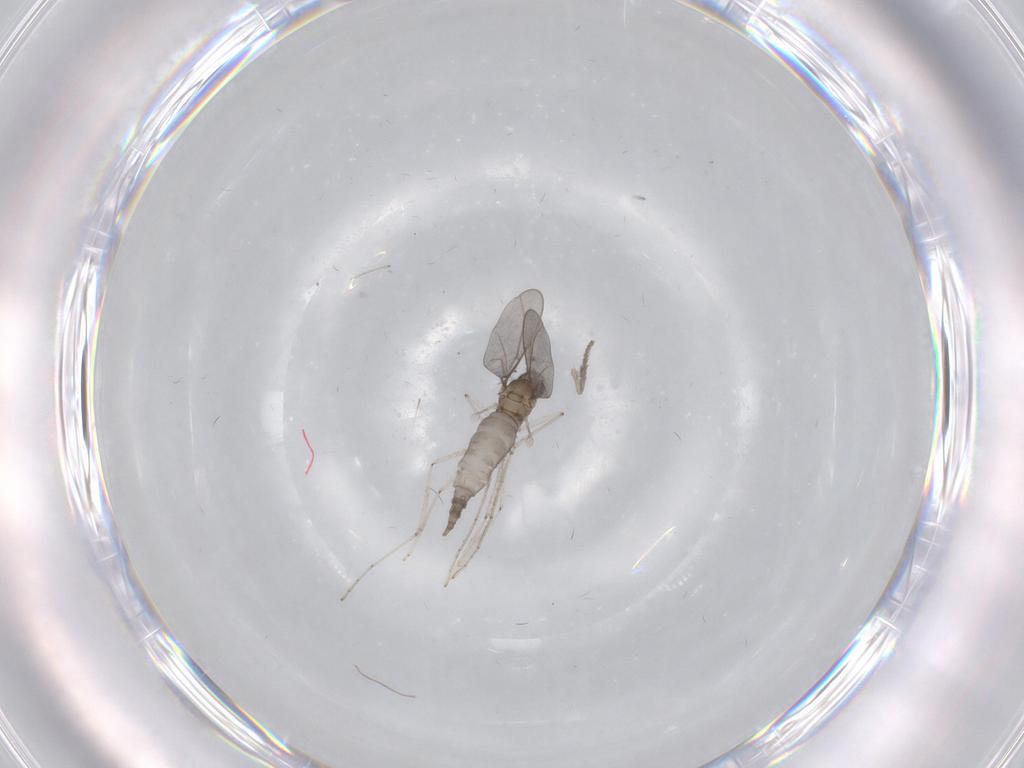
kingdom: Animalia
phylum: Arthropoda
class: Insecta
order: Diptera
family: Cecidomyiidae
